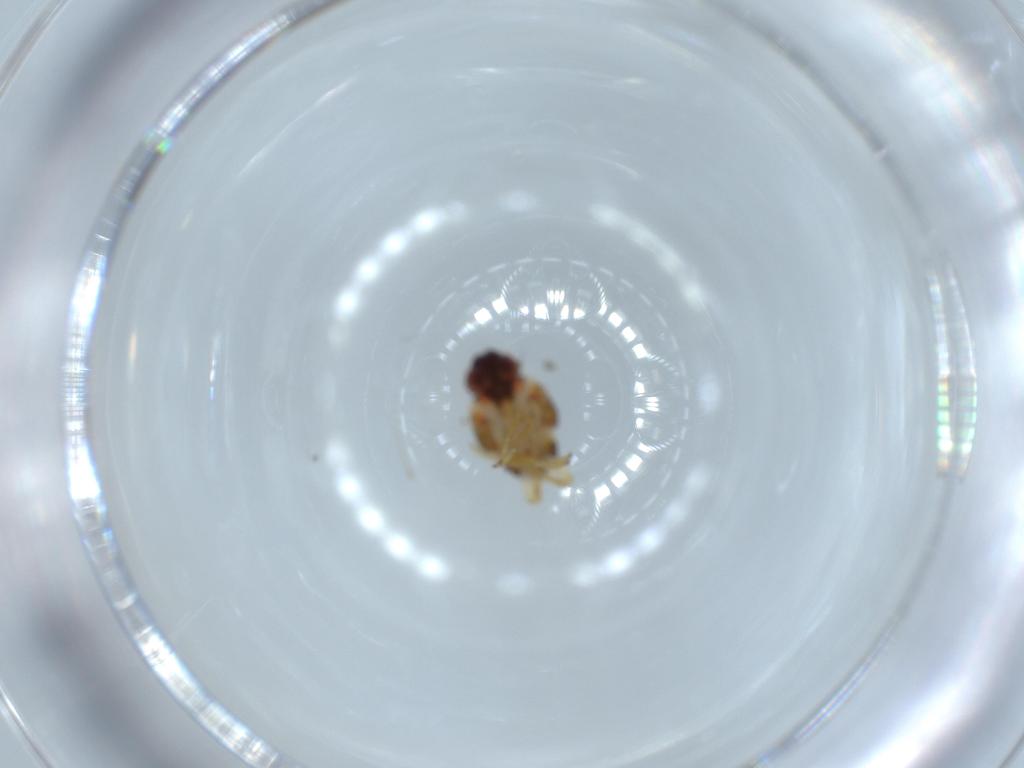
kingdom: Animalia
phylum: Arthropoda
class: Insecta
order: Hemiptera
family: Issidae
